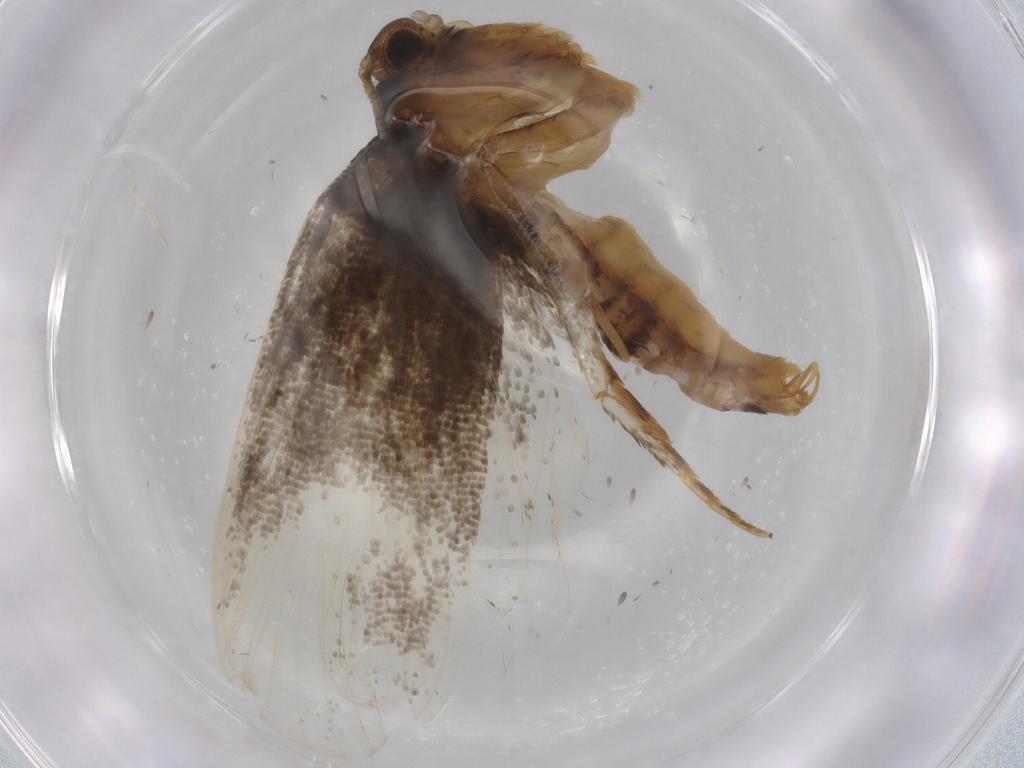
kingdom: Animalia
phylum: Arthropoda
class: Insecta
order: Lepidoptera
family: Tineidae
